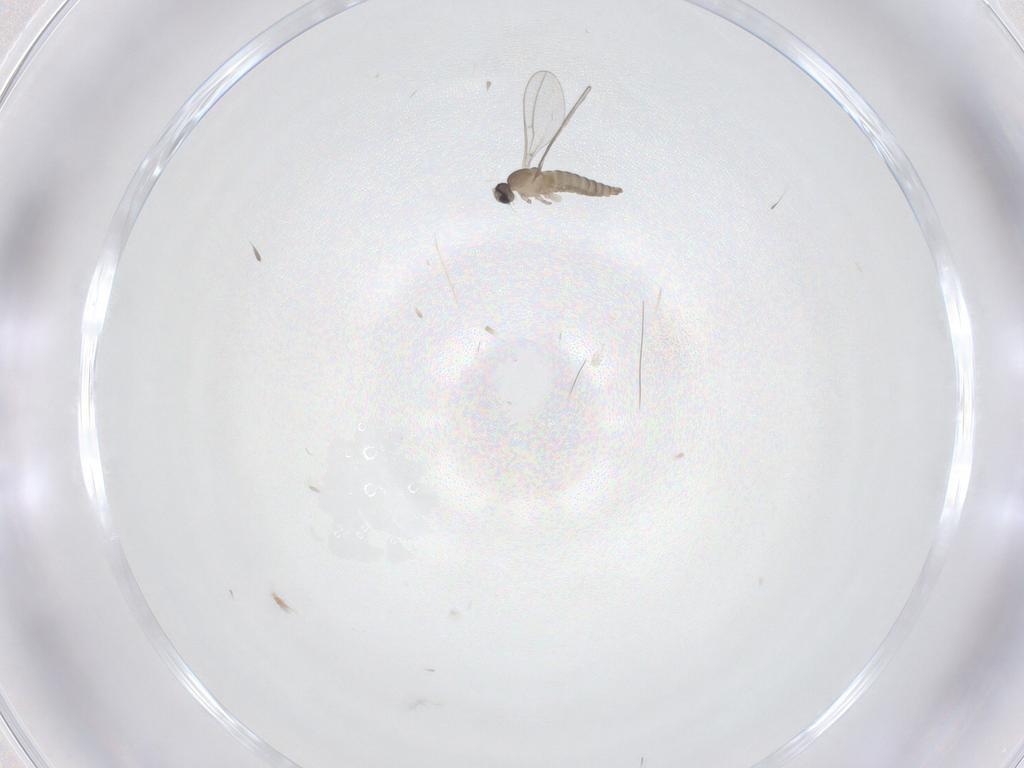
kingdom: Animalia
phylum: Arthropoda
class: Insecta
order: Diptera
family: Cecidomyiidae
